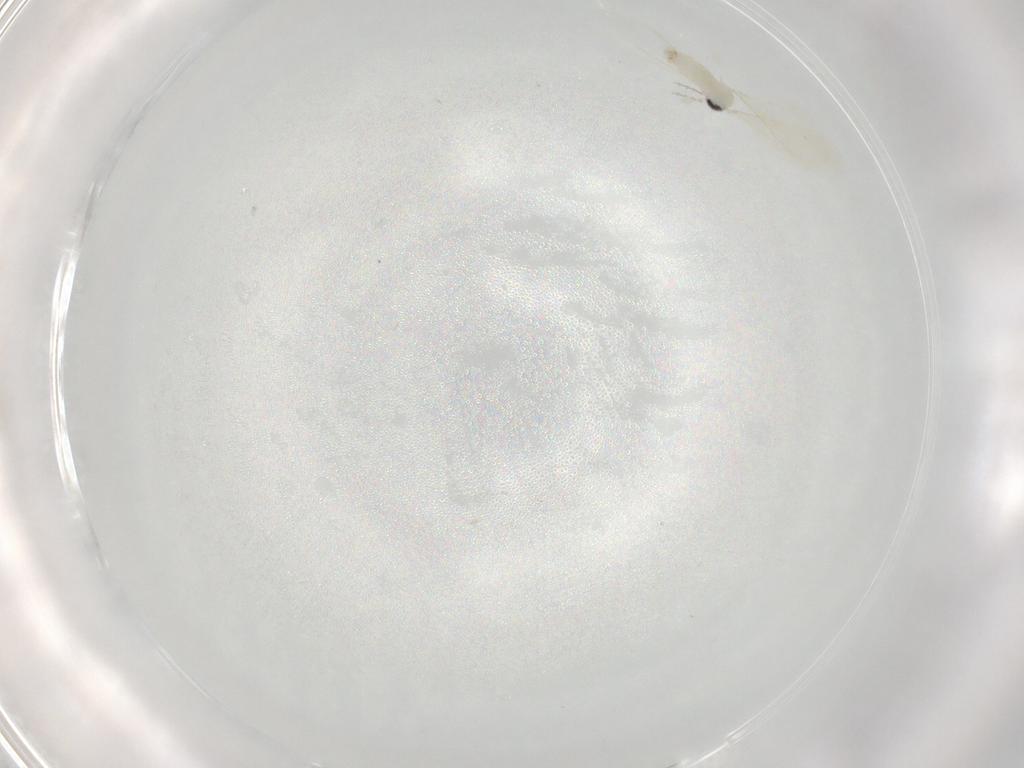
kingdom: Animalia
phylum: Arthropoda
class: Insecta
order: Diptera
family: Cecidomyiidae
